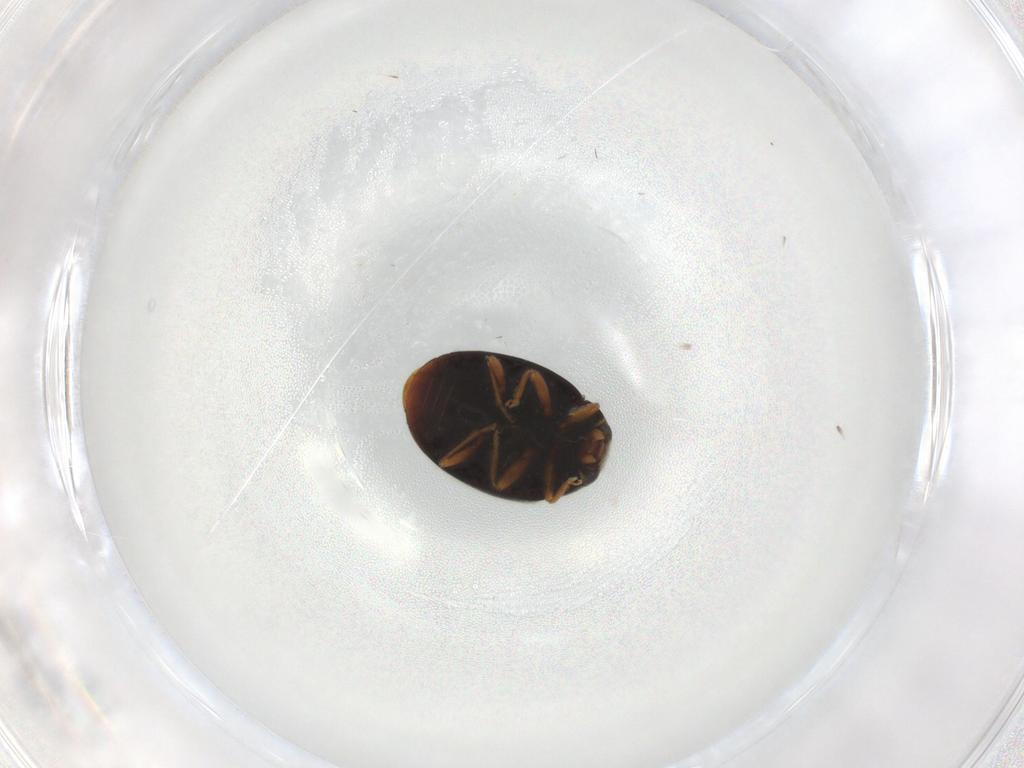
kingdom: Animalia
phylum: Arthropoda
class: Insecta
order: Coleoptera
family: Coccinellidae
